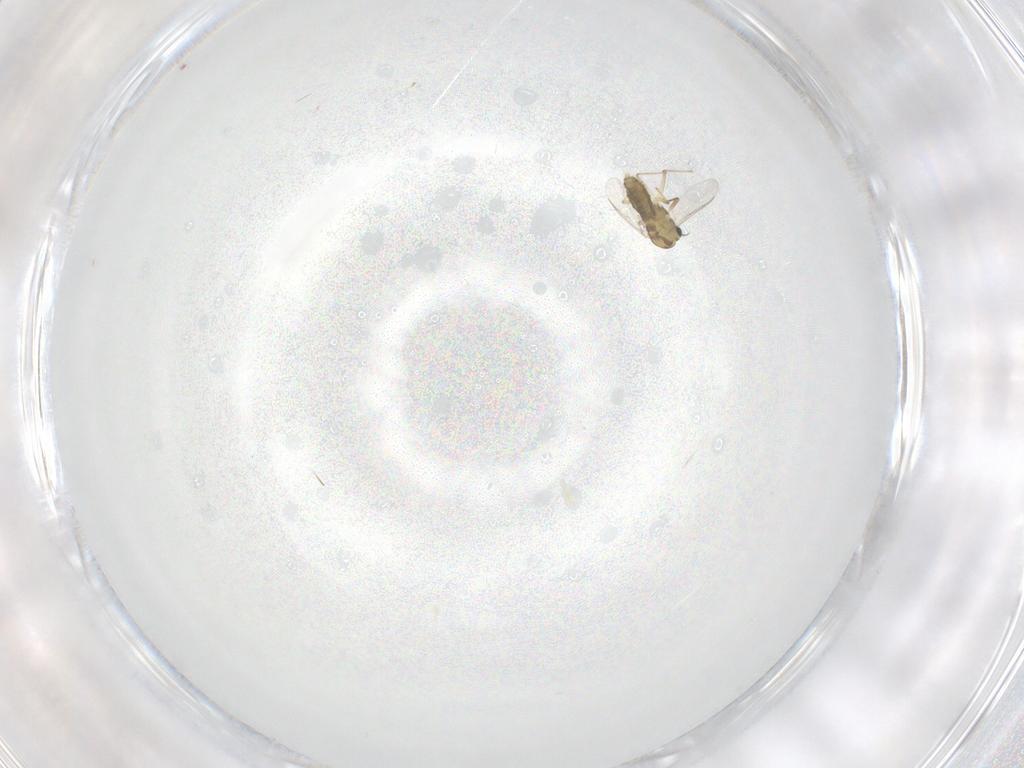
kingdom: Animalia
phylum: Arthropoda
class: Insecta
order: Diptera
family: Chironomidae
